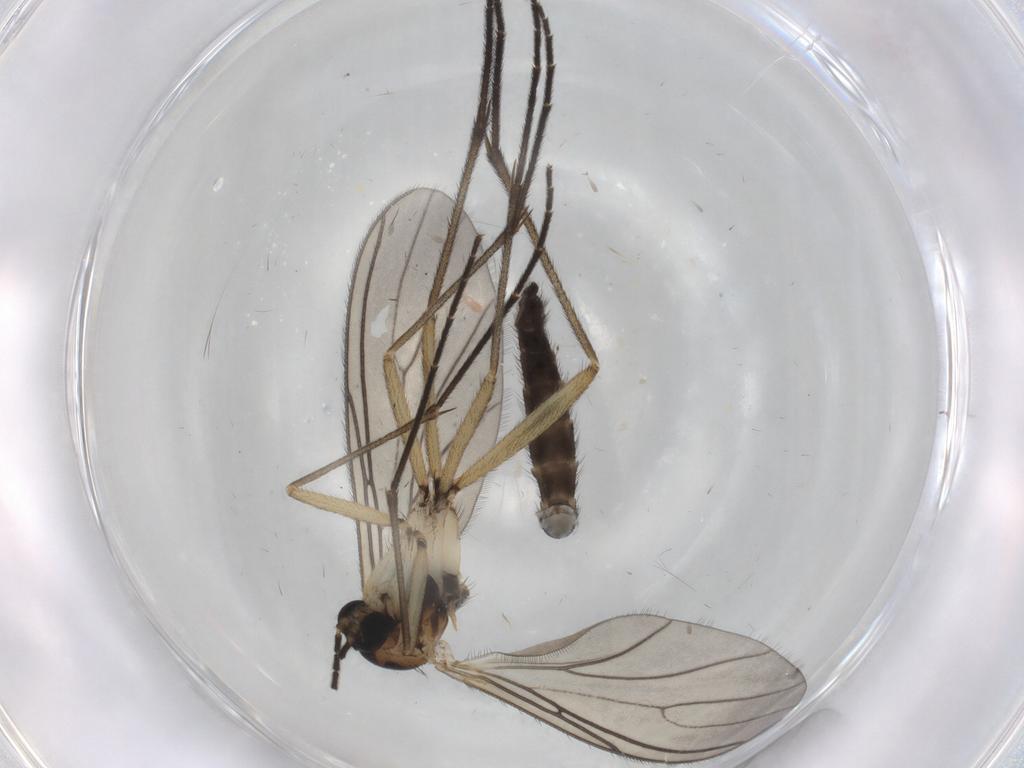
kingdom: Animalia
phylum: Arthropoda
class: Insecta
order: Diptera
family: Sciaridae
